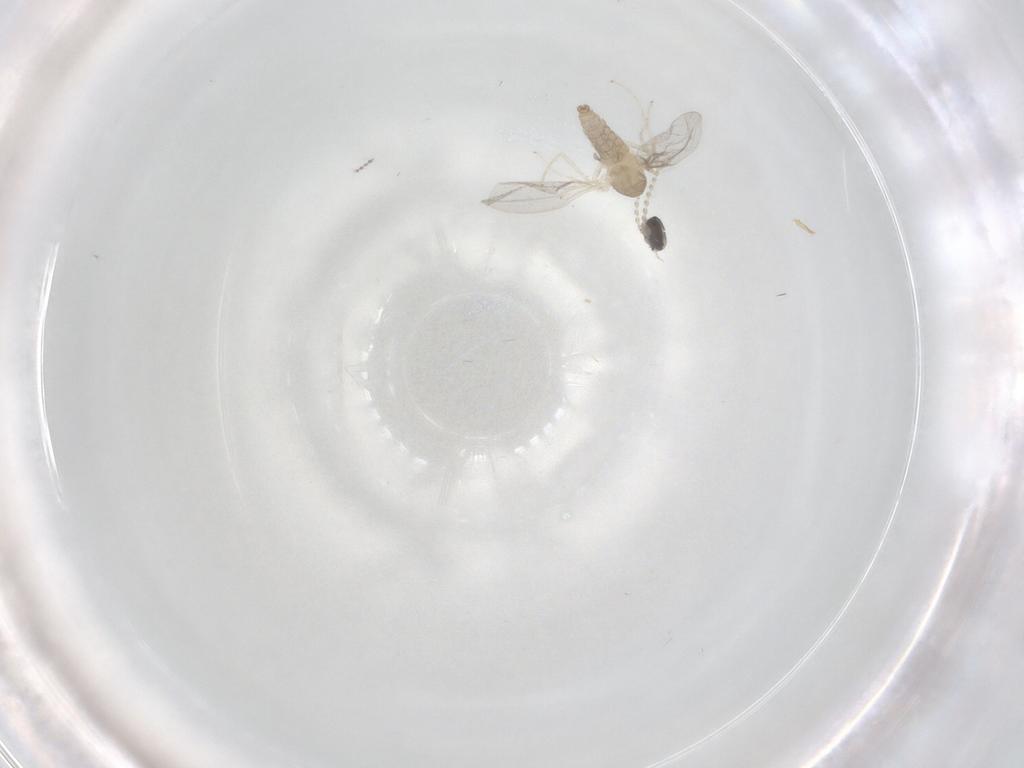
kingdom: Animalia
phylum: Arthropoda
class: Insecta
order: Diptera
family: Cecidomyiidae
